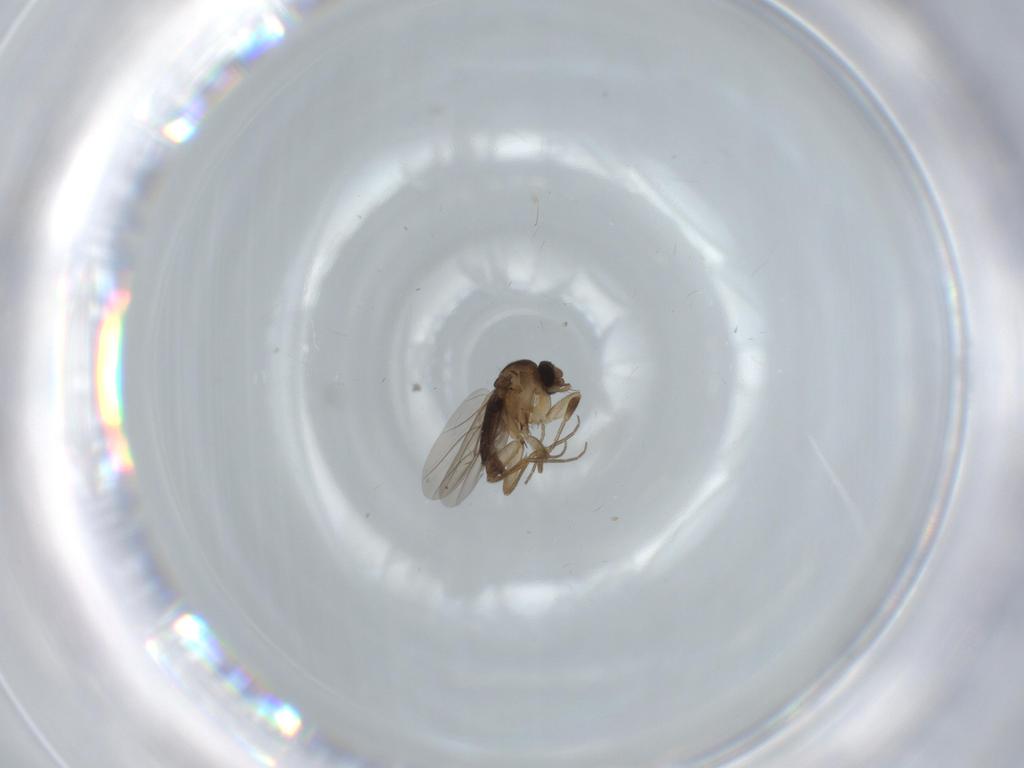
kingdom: Animalia
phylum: Arthropoda
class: Insecta
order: Diptera
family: Phoridae
